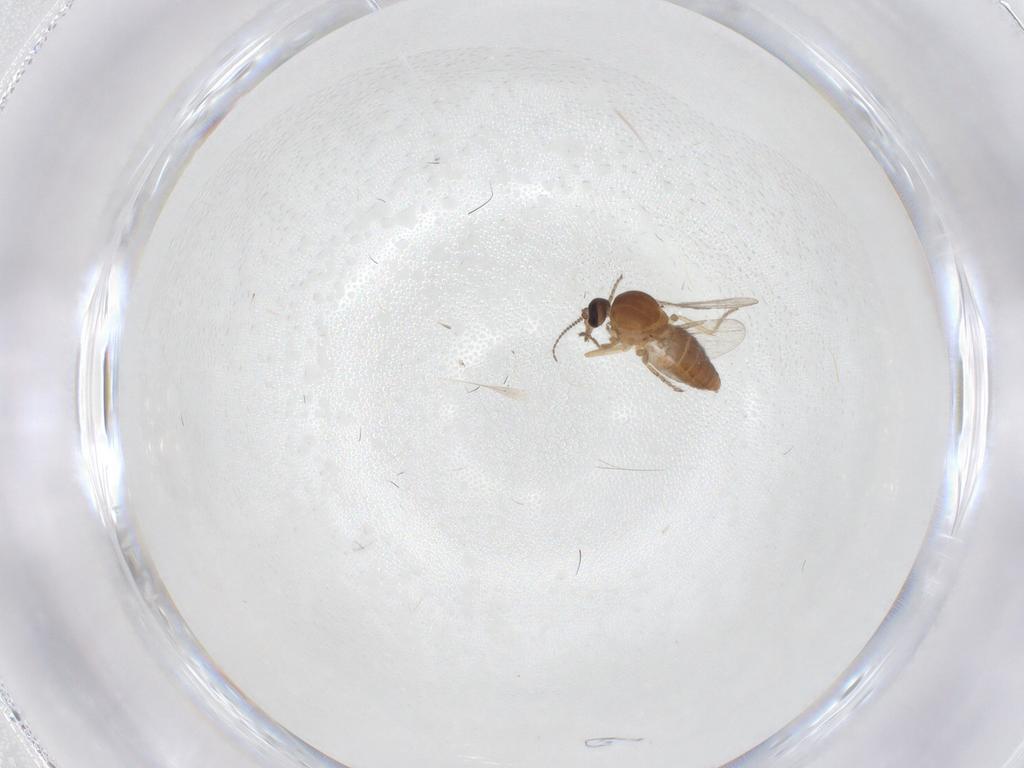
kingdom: Animalia
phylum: Arthropoda
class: Insecta
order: Diptera
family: Ceratopogonidae
